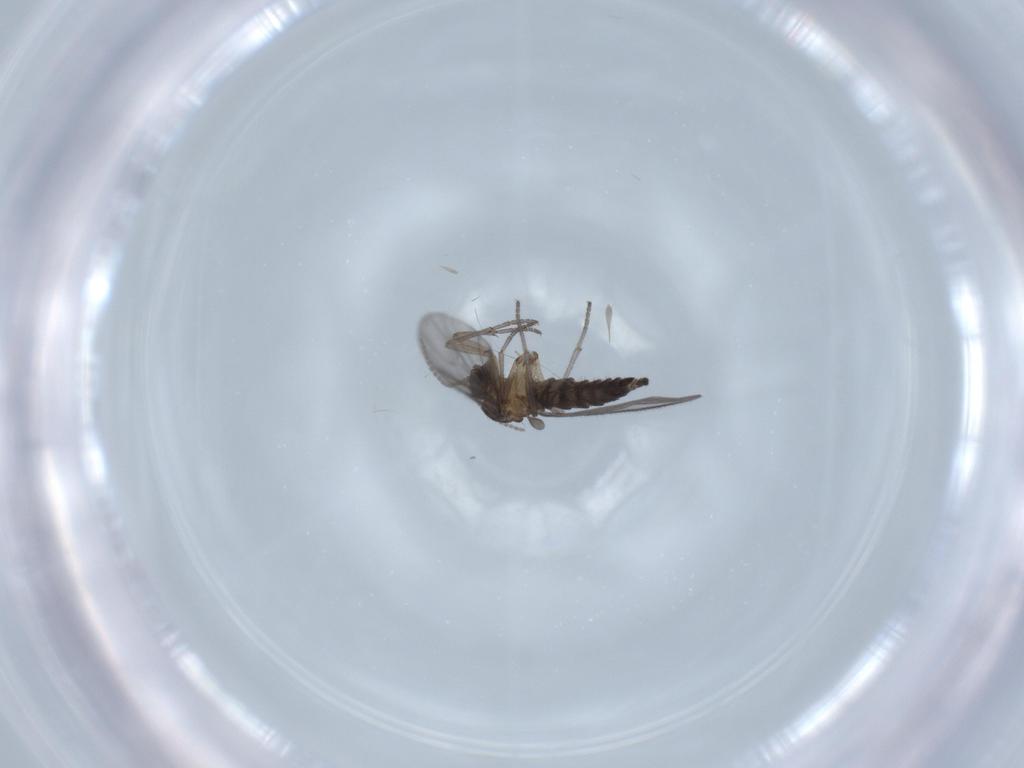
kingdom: Animalia
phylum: Arthropoda
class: Insecta
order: Diptera
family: Sciaridae
